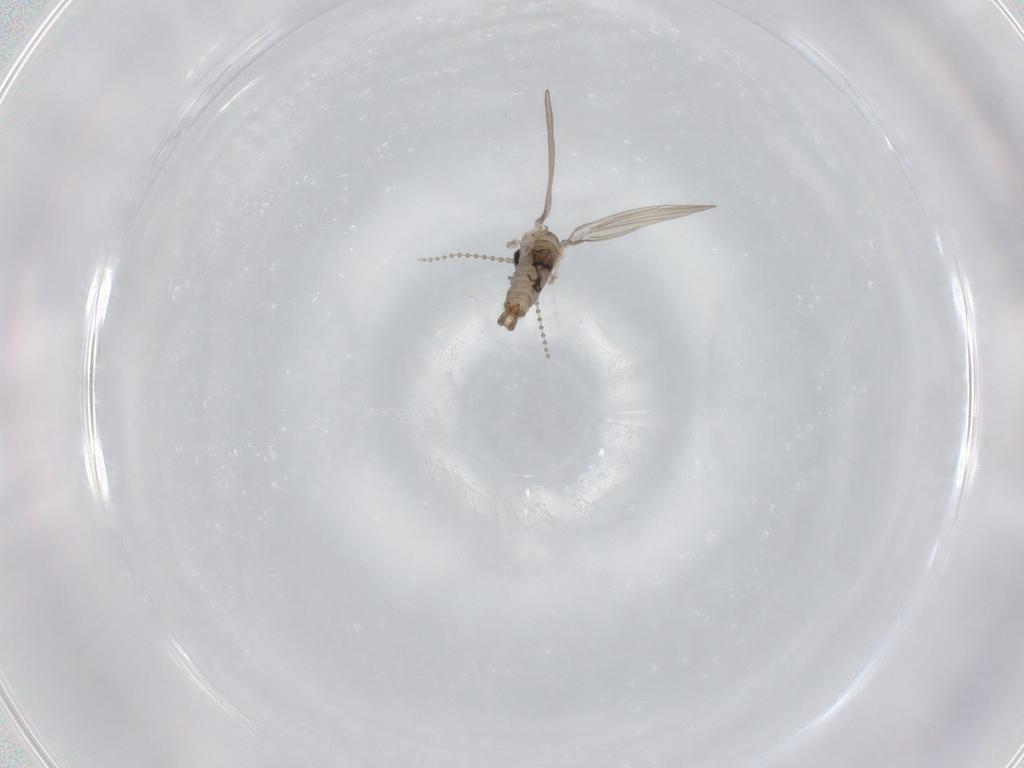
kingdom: Animalia
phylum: Arthropoda
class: Insecta
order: Diptera
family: Psychodidae
